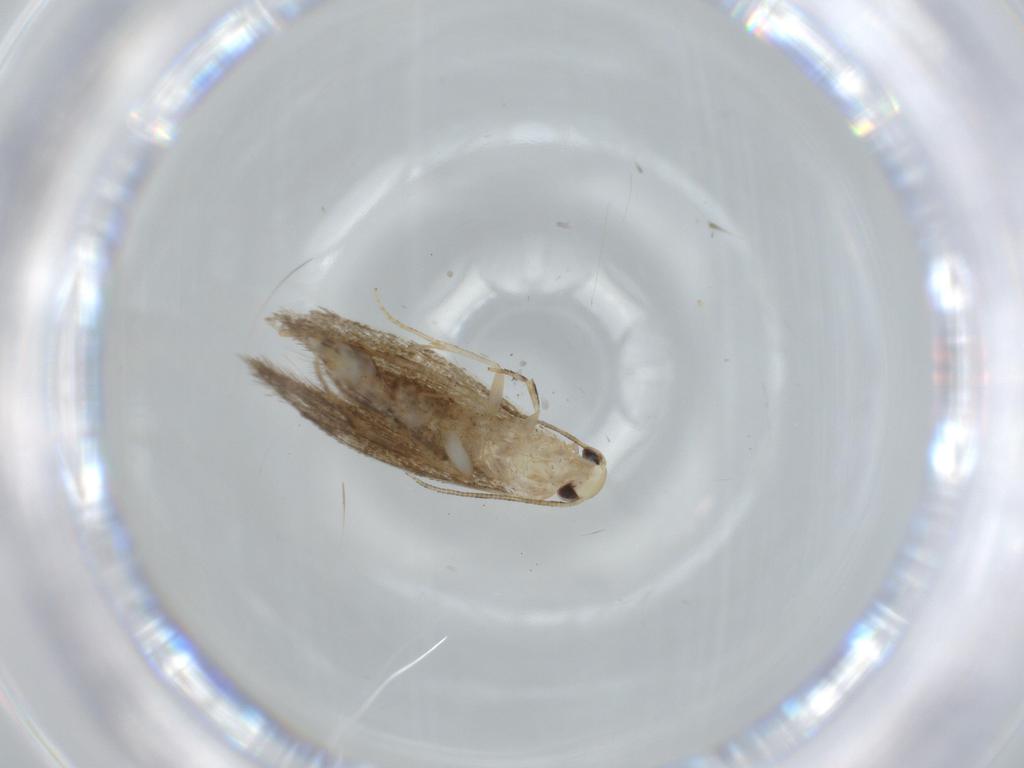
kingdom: Animalia
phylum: Arthropoda
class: Insecta
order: Lepidoptera
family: Tineidae
